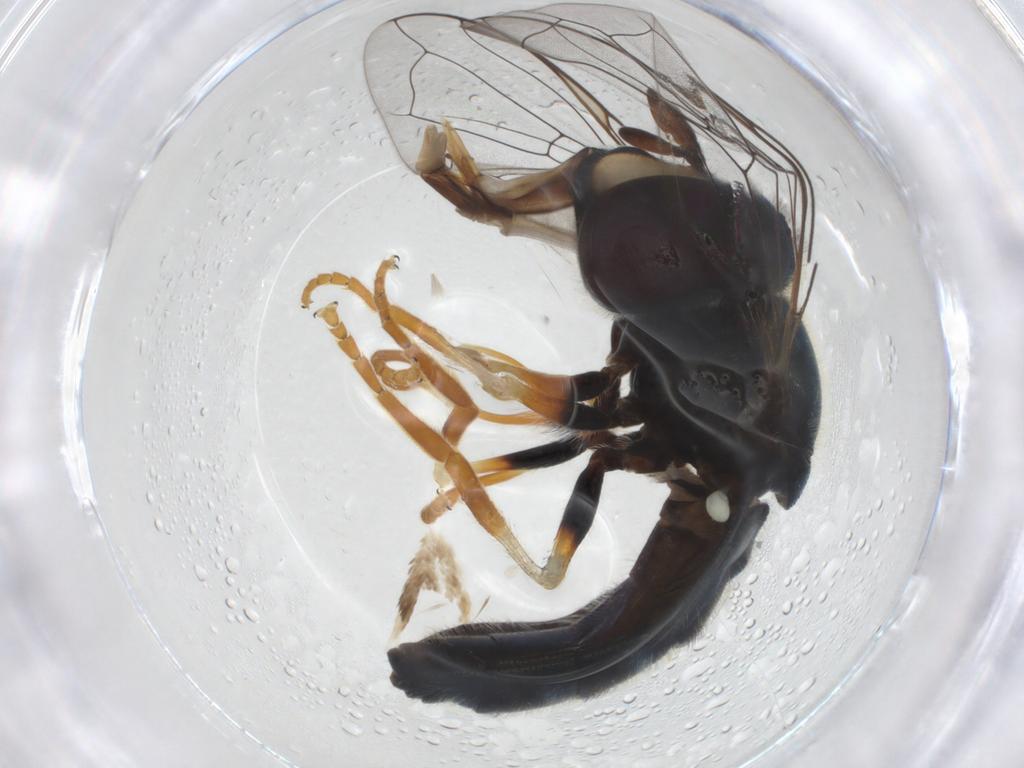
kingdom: Animalia
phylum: Arthropoda
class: Insecta
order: Diptera
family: Syrphidae
